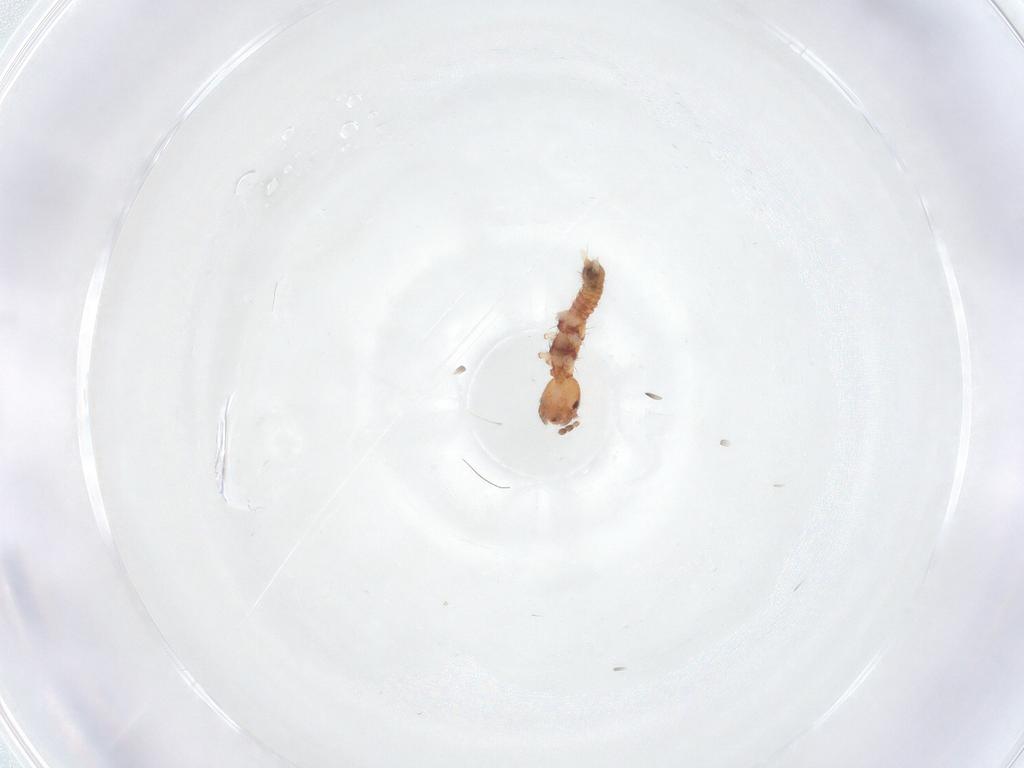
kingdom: Animalia
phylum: Arthropoda
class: Insecta
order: Embioptera
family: Anisembiidae
